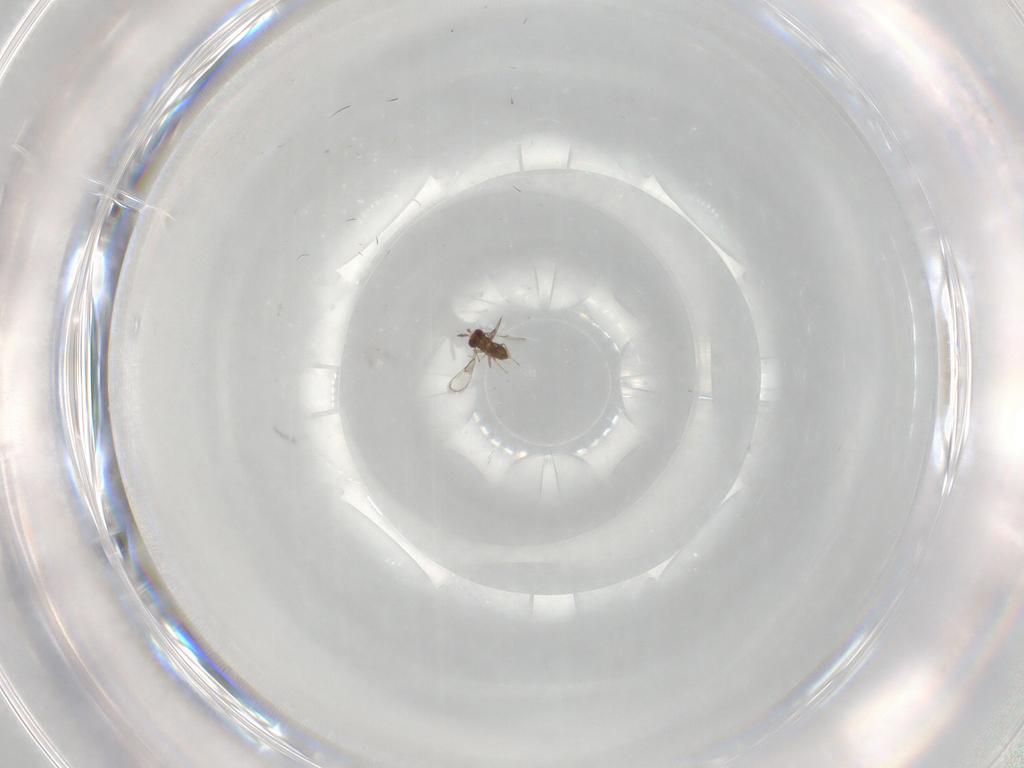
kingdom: Animalia
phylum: Arthropoda
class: Insecta
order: Hymenoptera
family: Trichogrammatidae
